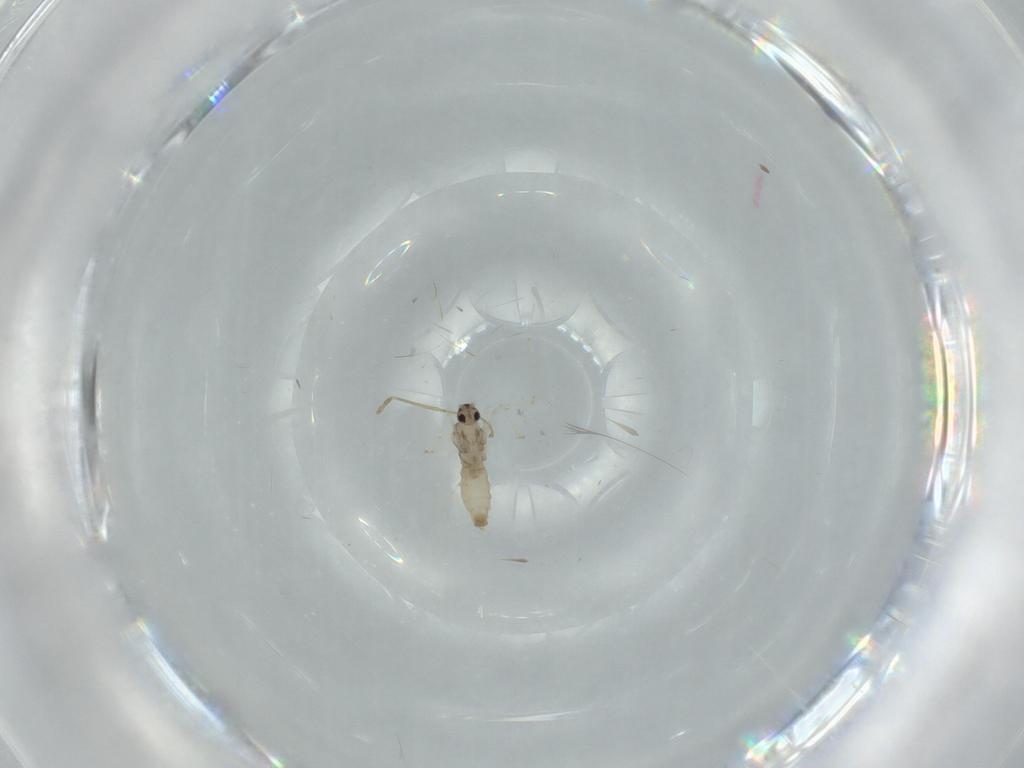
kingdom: Animalia
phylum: Arthropoda
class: Insecta
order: Diptera
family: Cecidomyiidae
